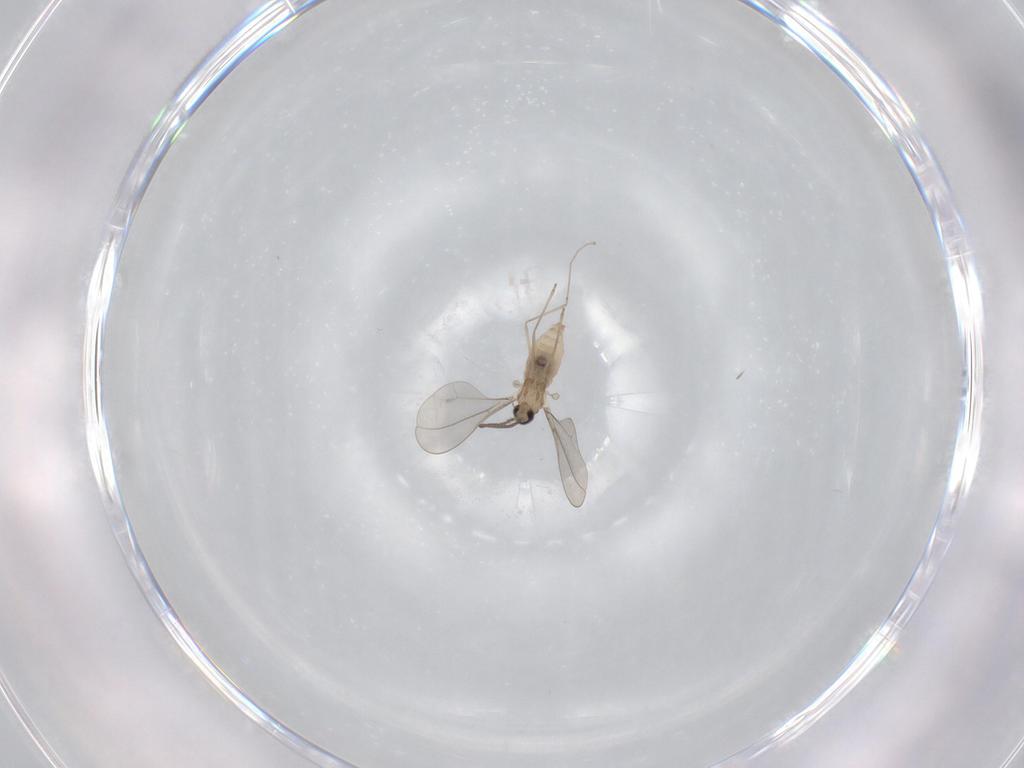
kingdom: Animalia
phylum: Arthropoda
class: Insecta
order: Diptera
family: Cecidomyiidae
